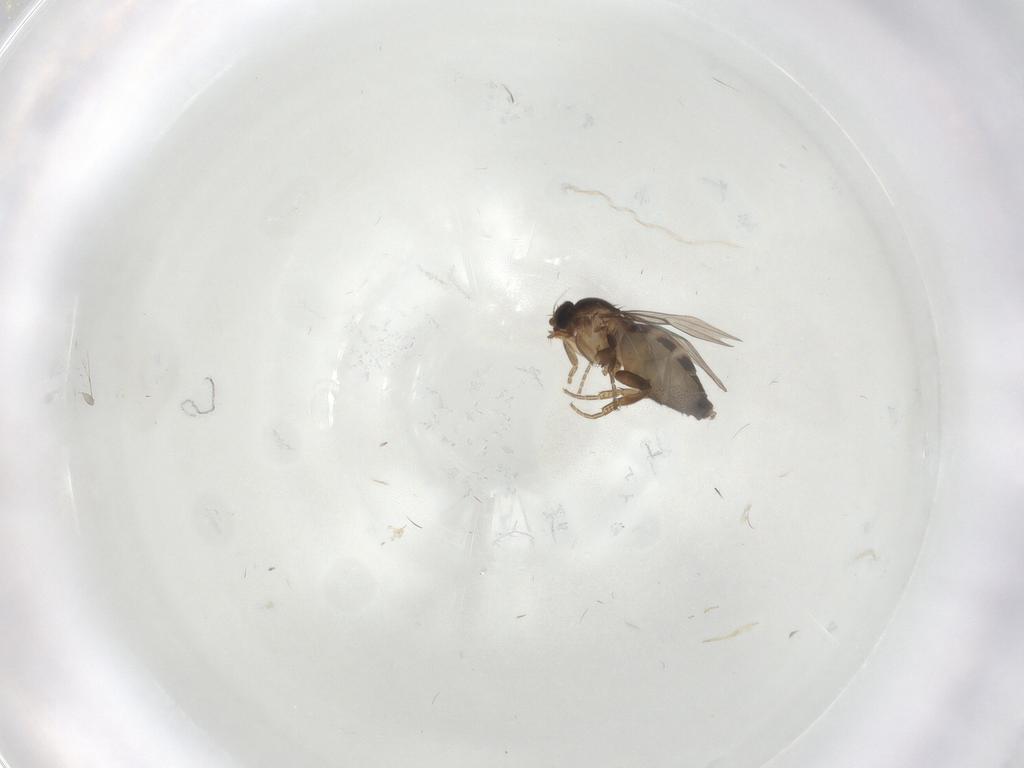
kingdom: Animalia
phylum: Arthropoda
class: Insecta
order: Diptera
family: Phoridae
